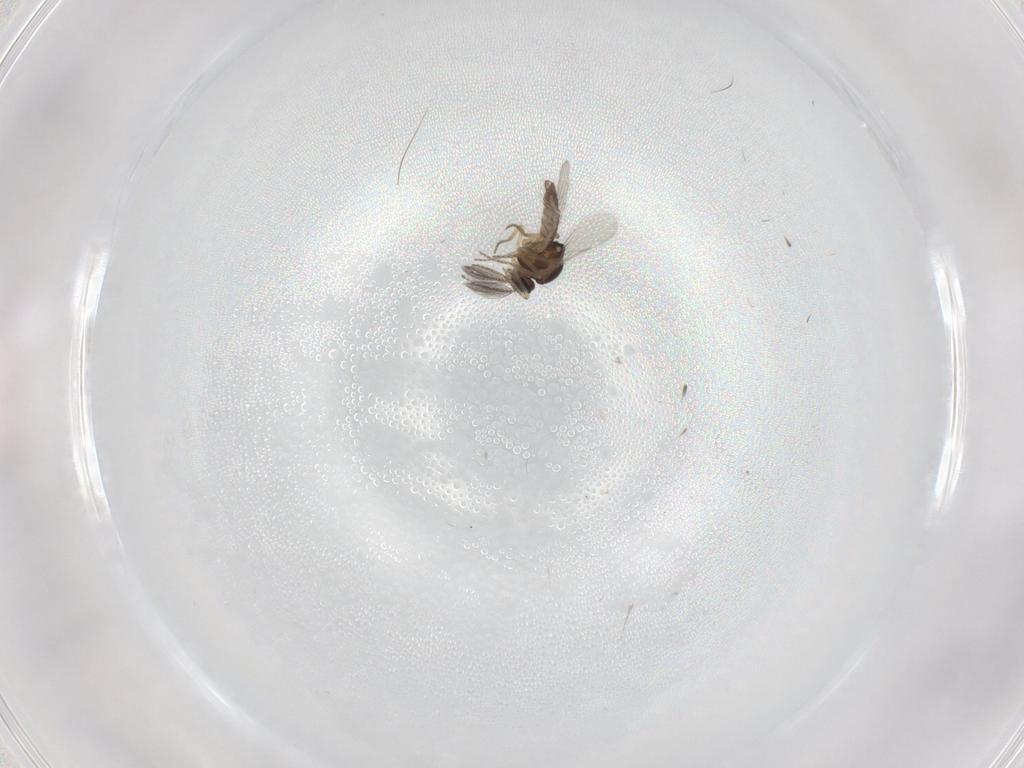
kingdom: Animalia
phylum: Arthropoda
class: Insecta
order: Diptera
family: Ceratopogonidae
